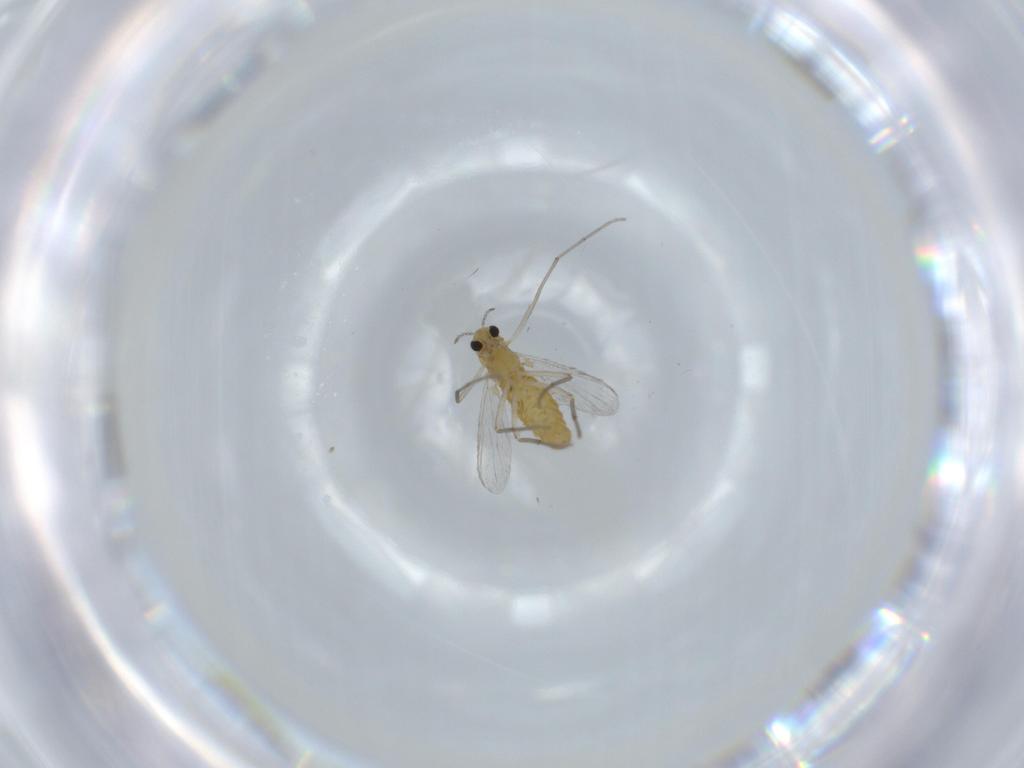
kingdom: Animalia
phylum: Arthropoda
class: Insecta
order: Diptera
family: Chironomidae
